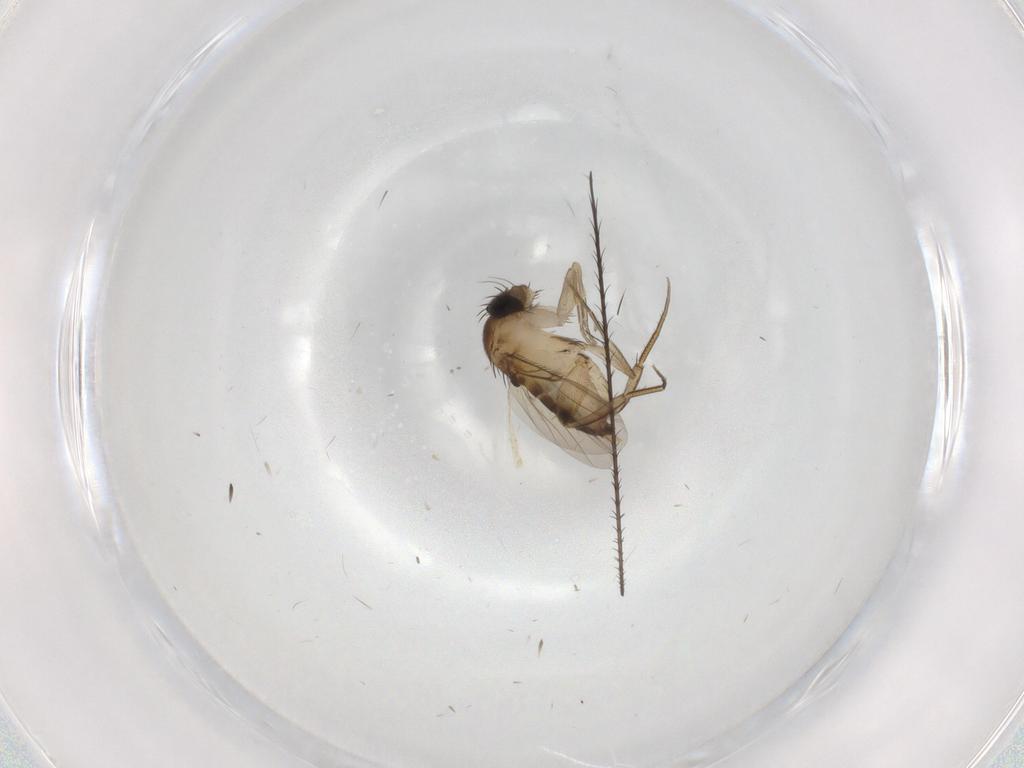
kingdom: Animalia
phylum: Arthropoda
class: Insecta
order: Diptera
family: Phoridae
